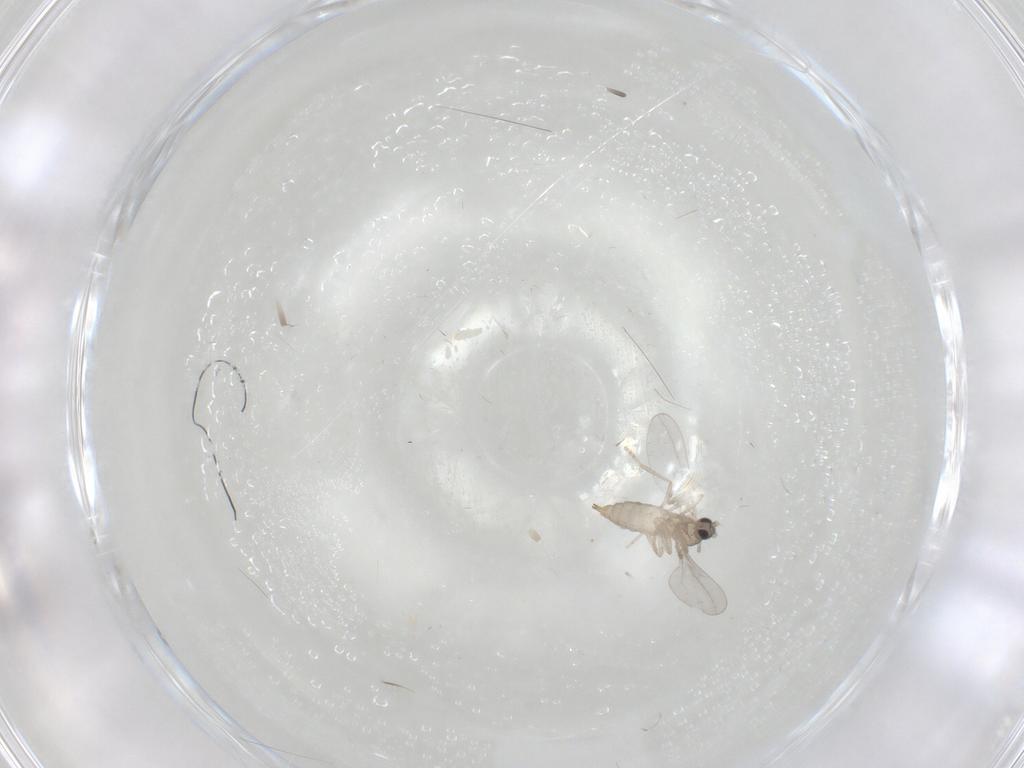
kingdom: Animalia
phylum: Arthropoda
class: Insecta
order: Diptera
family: Cecidomyiidae
